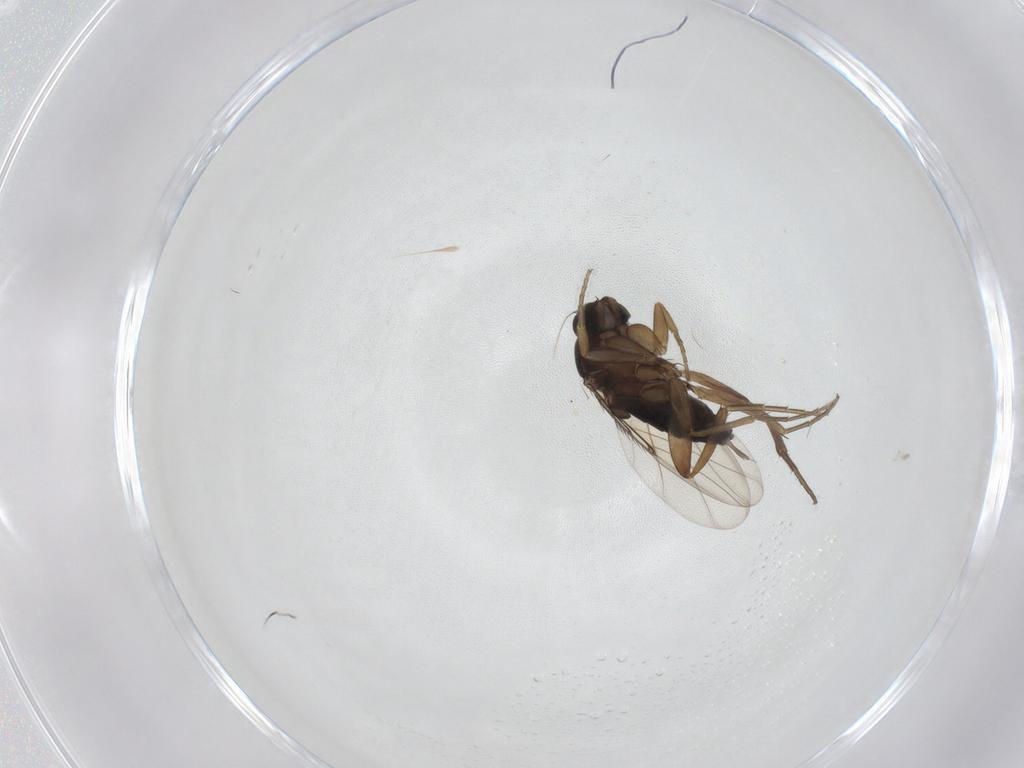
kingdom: Animalia
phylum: Arthropoda
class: Insecta
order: Diptera
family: Phoridae
